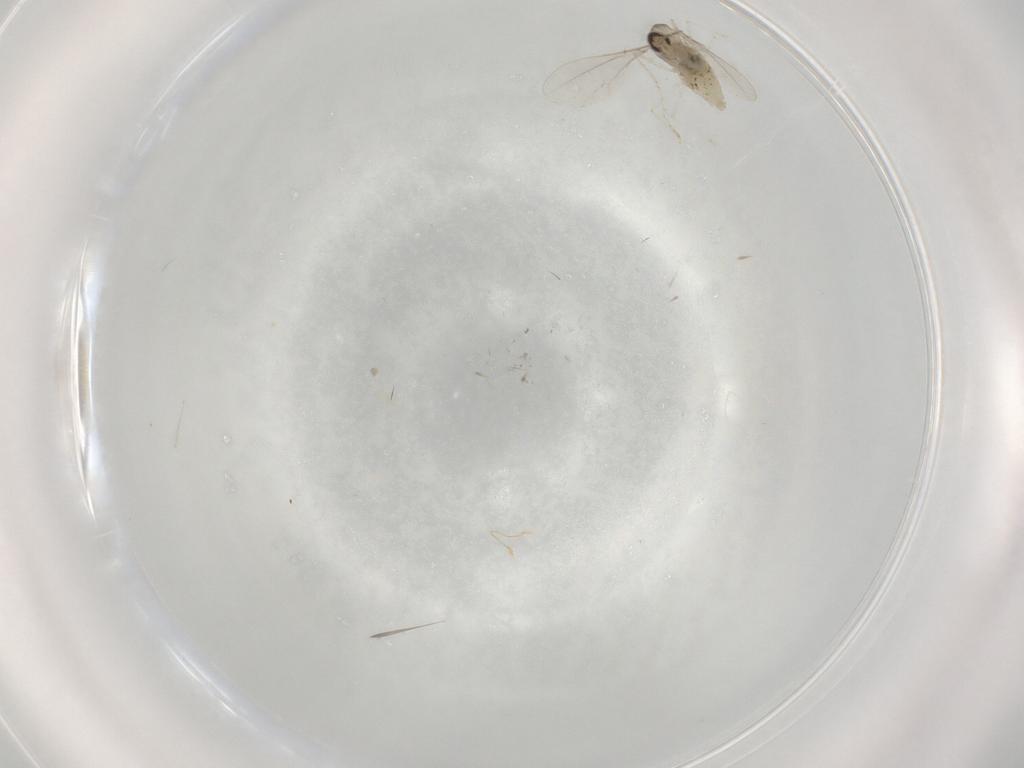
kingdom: Animalia
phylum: Arthropoda
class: Insecta
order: Diptera
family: Cecidomyiidae
